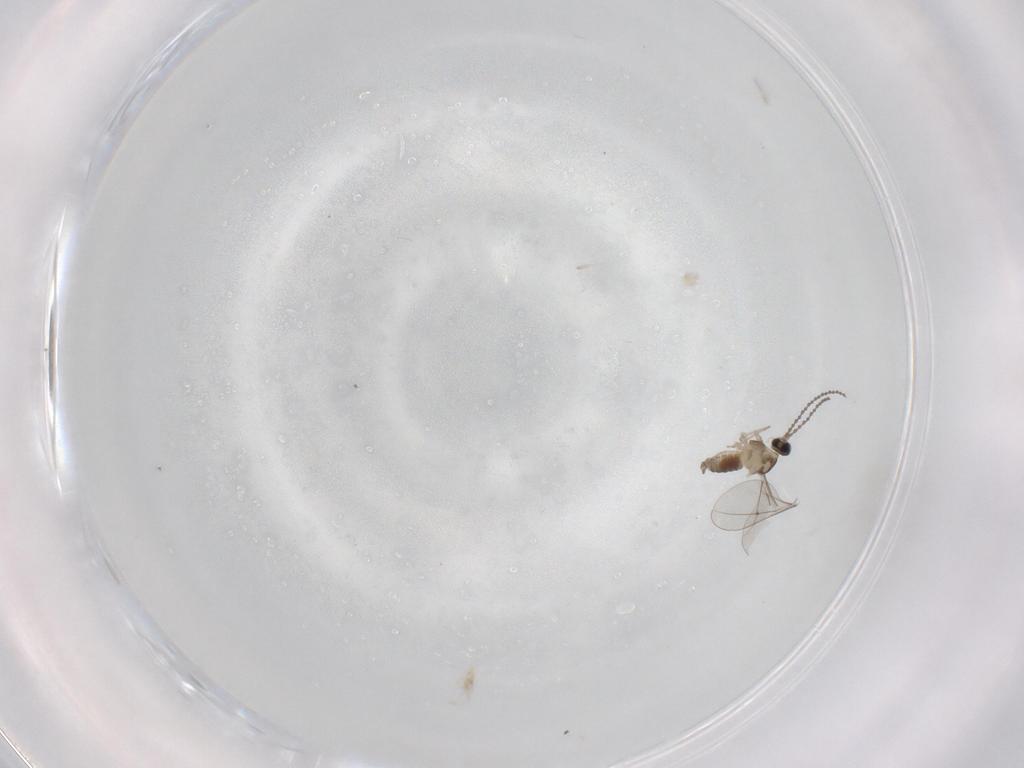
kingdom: Animalia
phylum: Arthropoda
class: Insecta
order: Diptera
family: Cecidomyiidae
